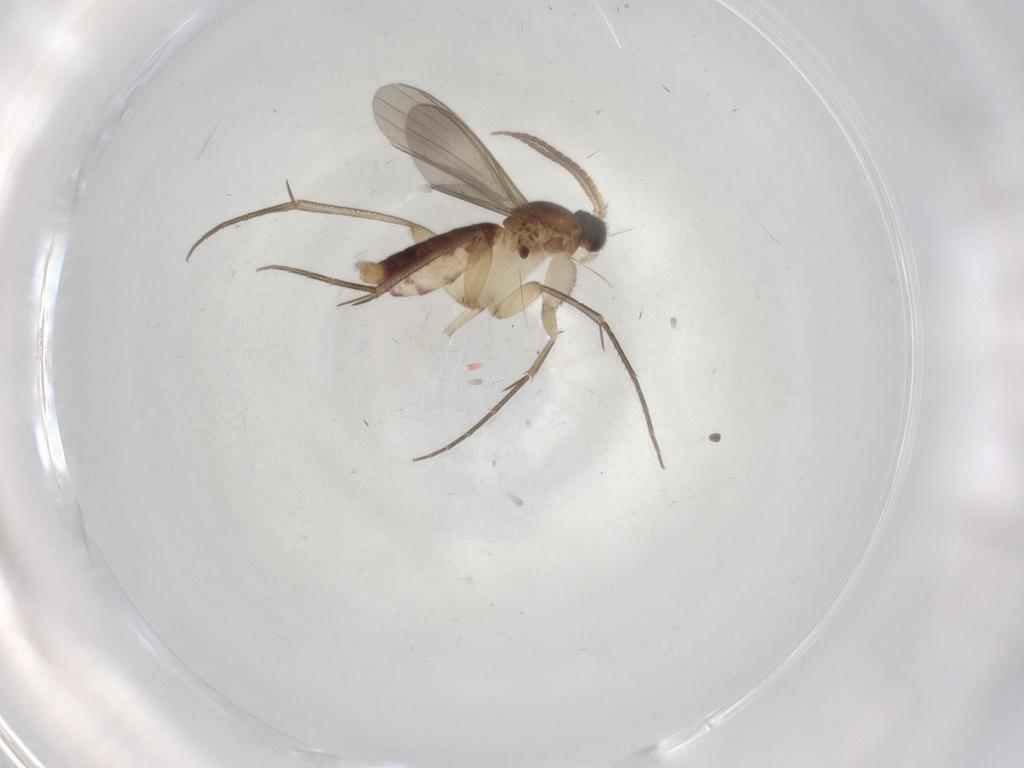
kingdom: Animalia
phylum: Arthropoda
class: Insecta
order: Diptera
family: Mycetophilidae
